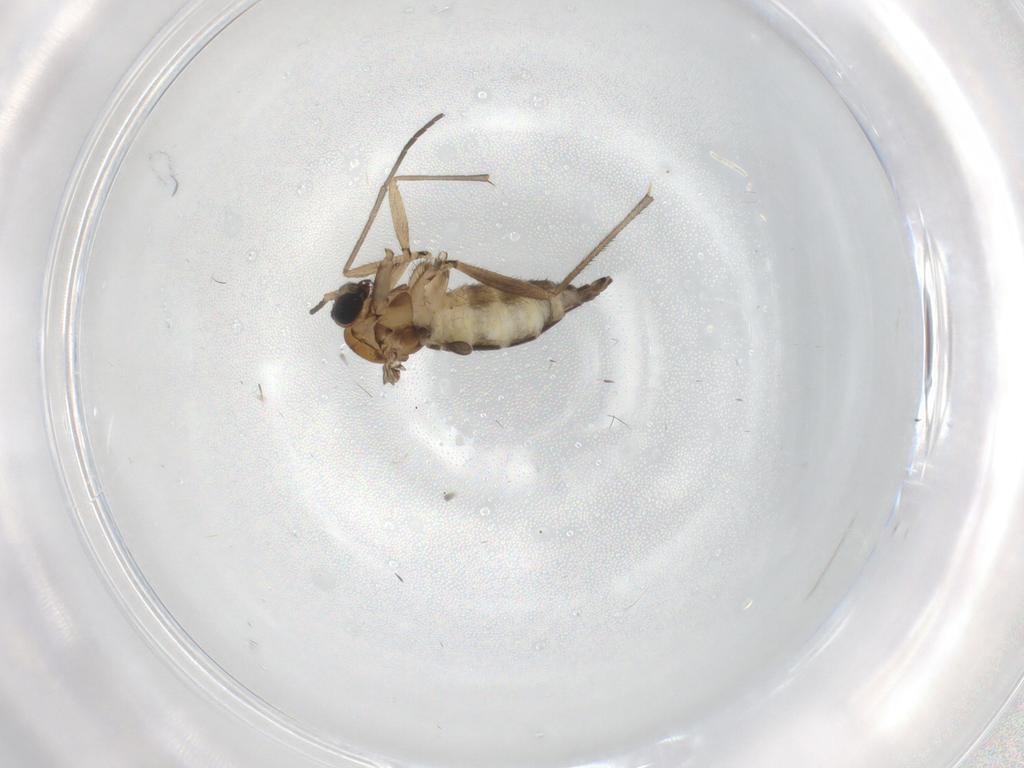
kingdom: Animalia
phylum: Arthropoda
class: Insecta
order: Diptera
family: Sciaridae
